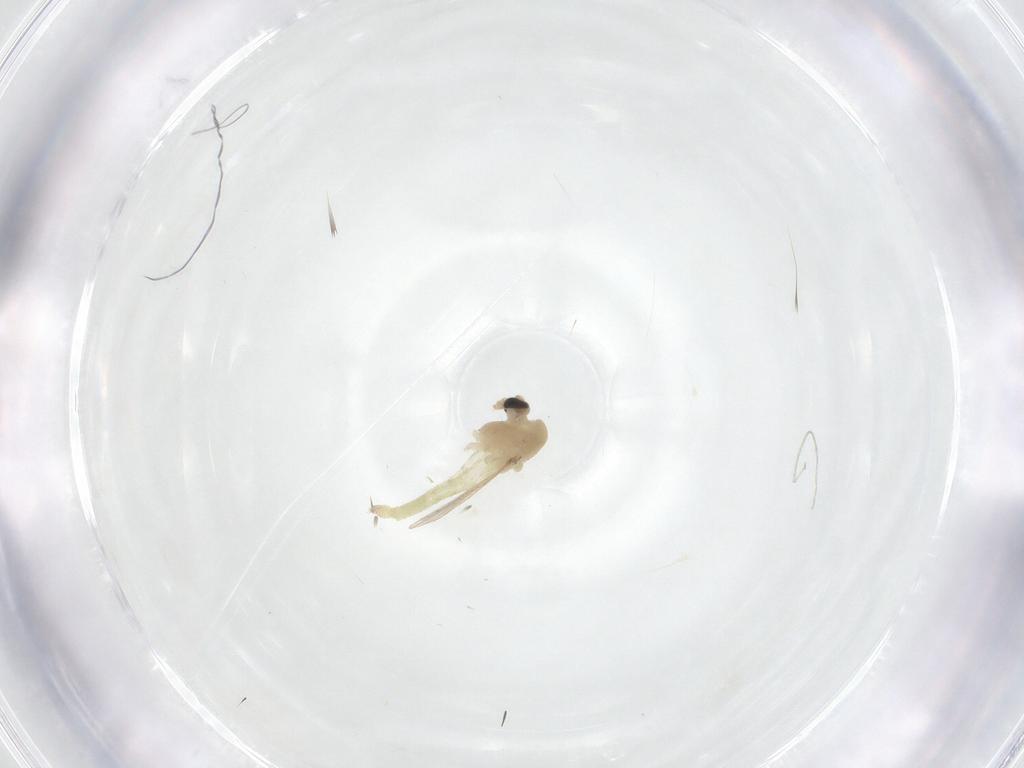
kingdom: Animalia
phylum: Arthropoda
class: Insecta
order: Diptera
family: Chironomidae
